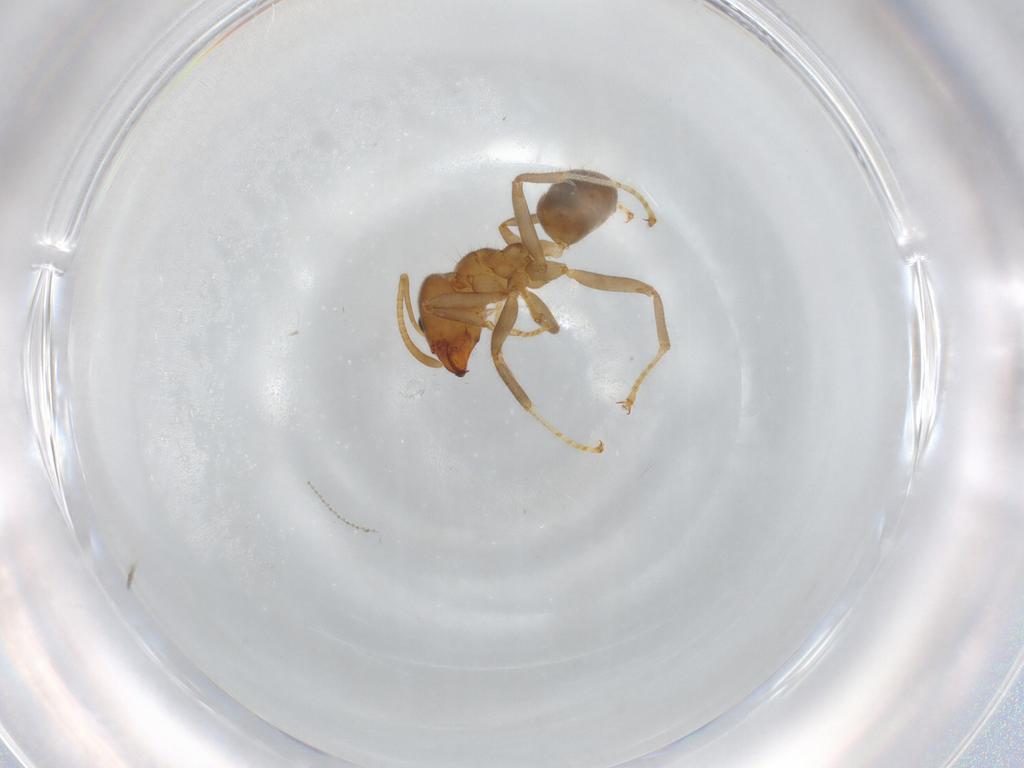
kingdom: Animalia
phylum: Arthropoda
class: Insecta
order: Hymenoptera
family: Formicidae
